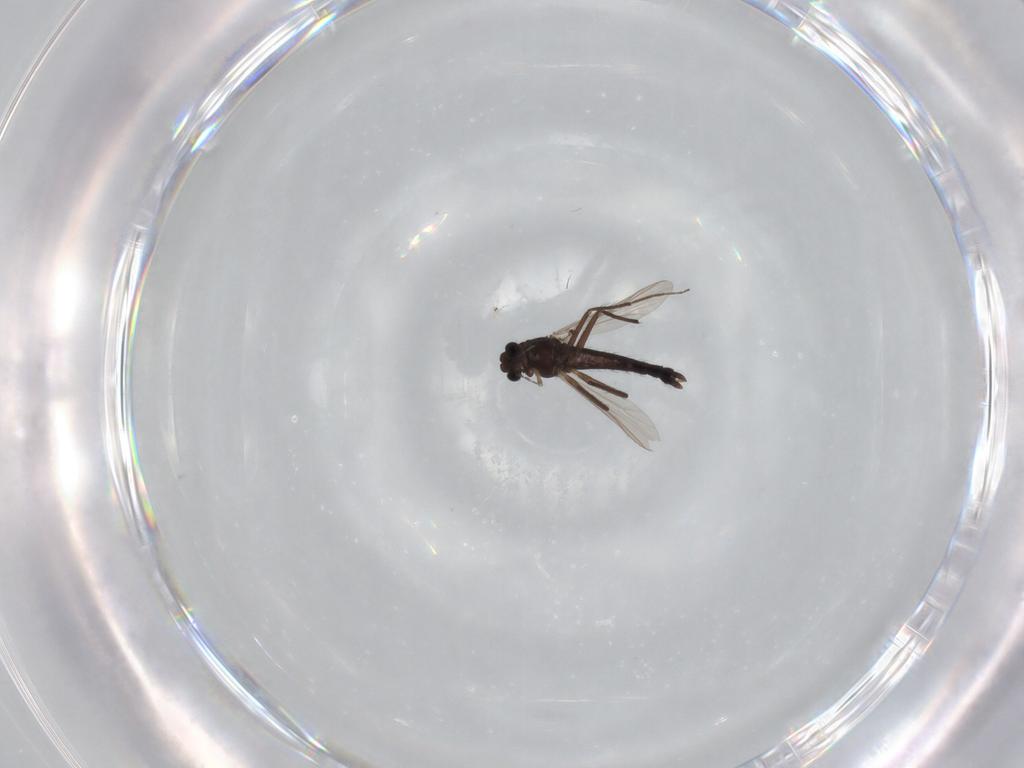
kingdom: Animalia
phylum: Arthropoda
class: Insecta
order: Diptera
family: Chironomidae
